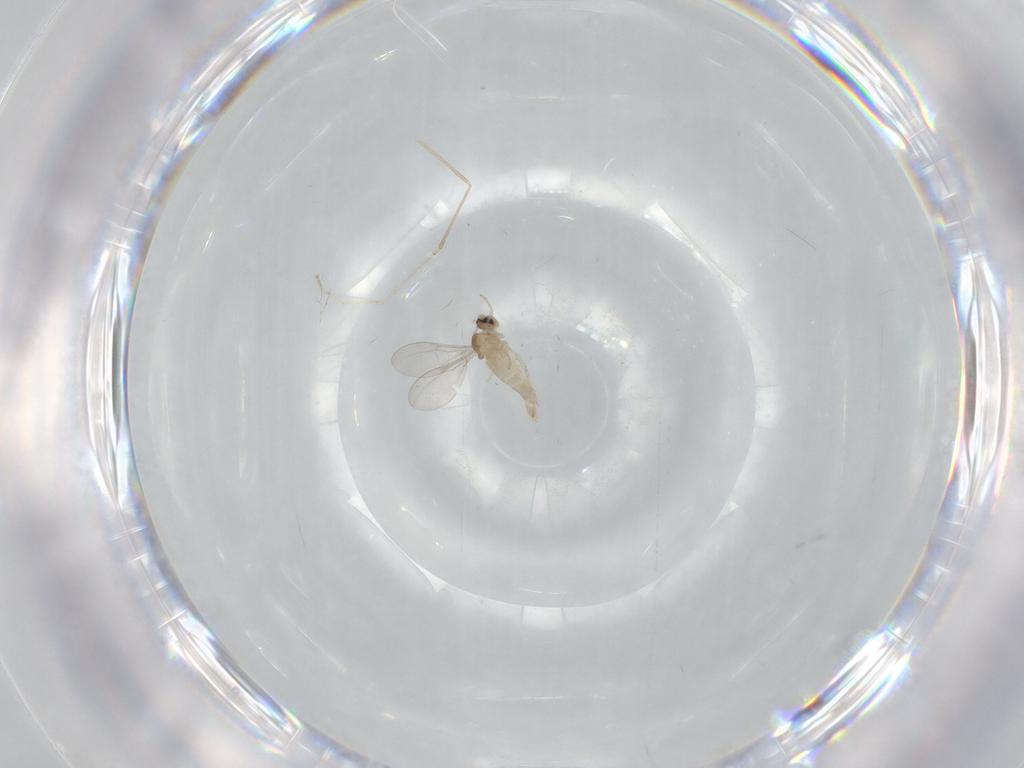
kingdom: Animalia
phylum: Arthropoda
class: Insecta
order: Diptera
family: Cecidomyiidae
